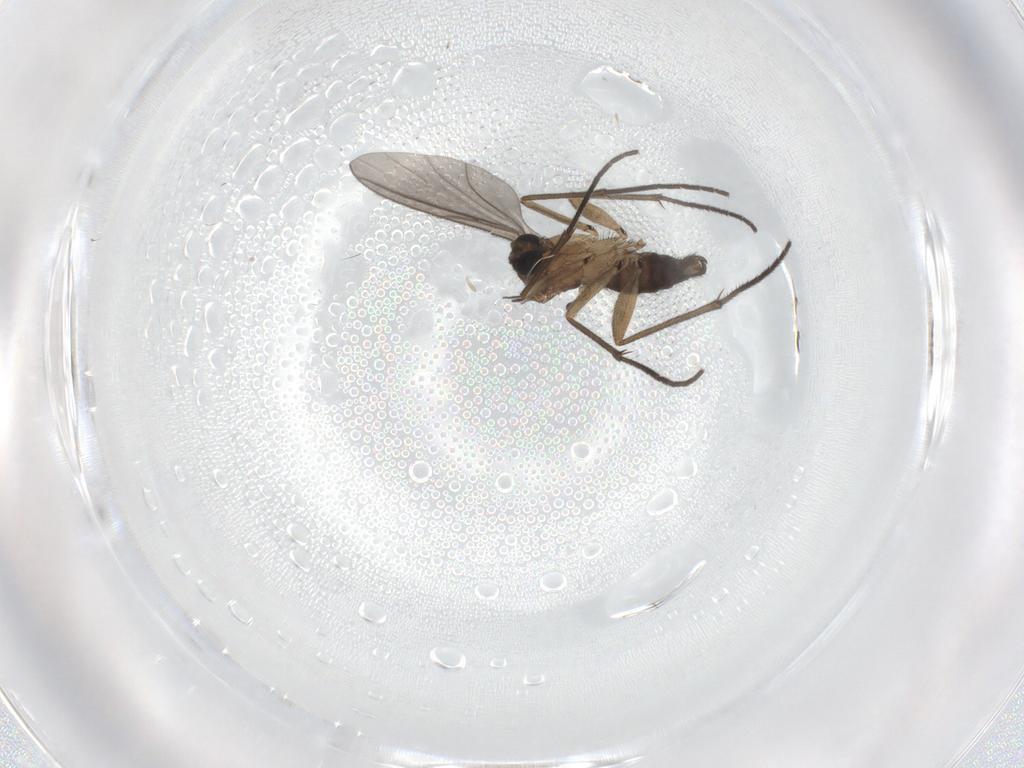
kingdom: Animalia
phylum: Arthropoda
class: Insecta
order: Diptera
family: Sciaridae
